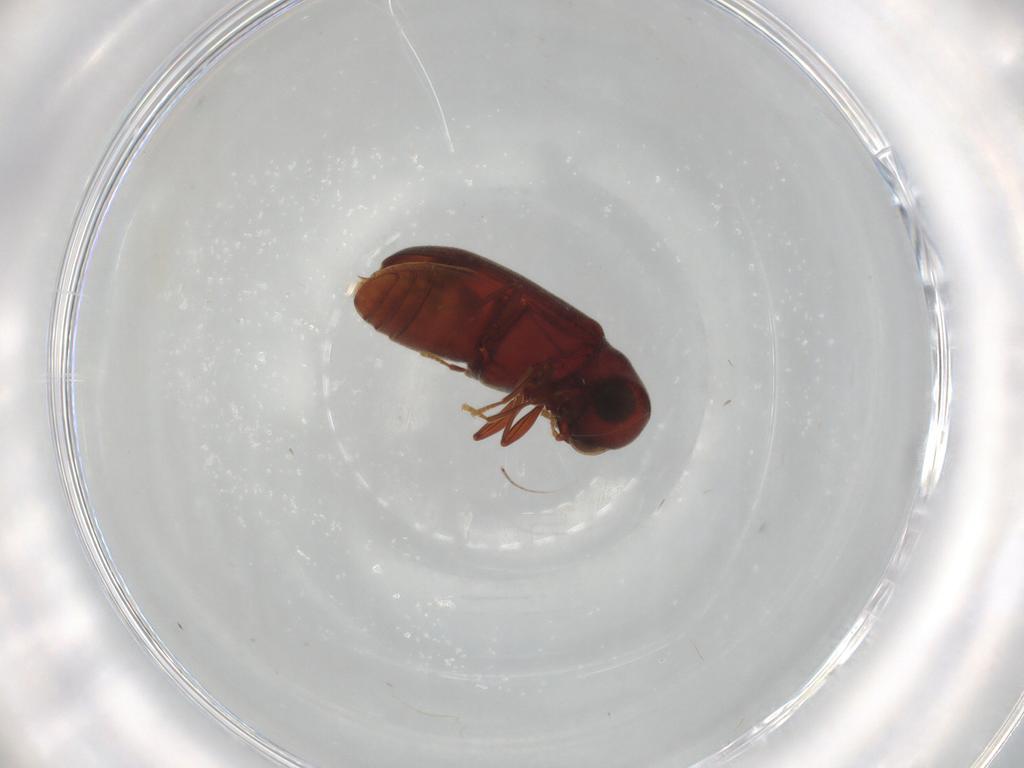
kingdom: Animalia
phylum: Arthropoda
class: Insecta
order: Coleoptera
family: Ptinidae
